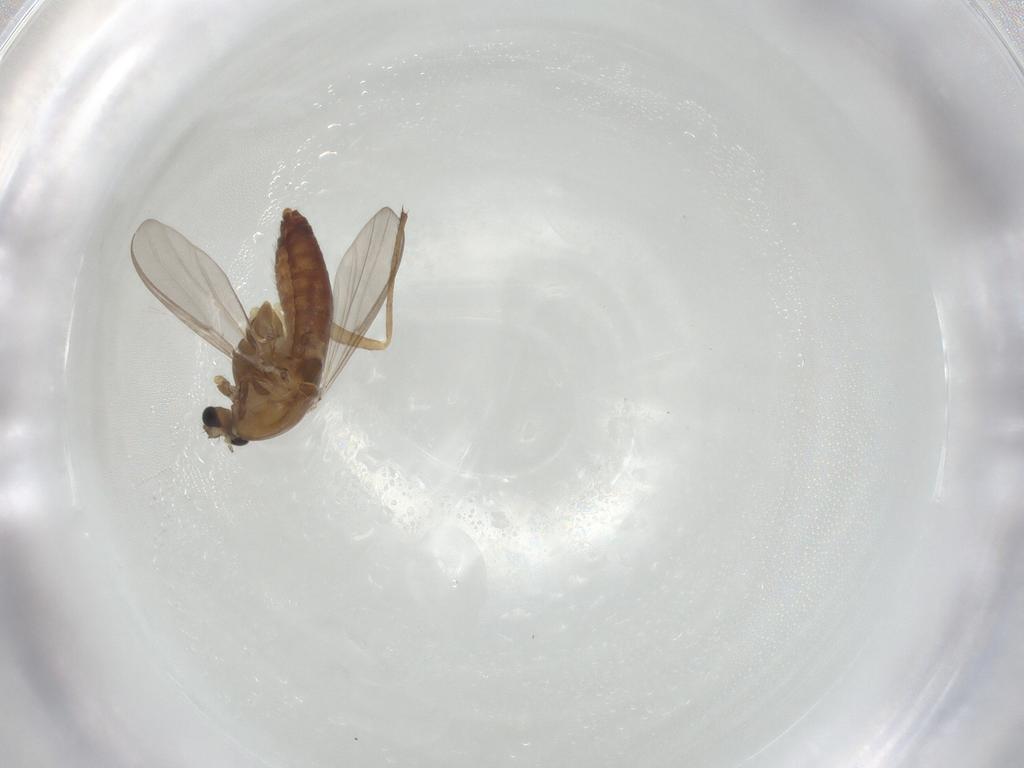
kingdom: Animalia
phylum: Arthropoda
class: Insecta
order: Diptera
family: Chironomidae
